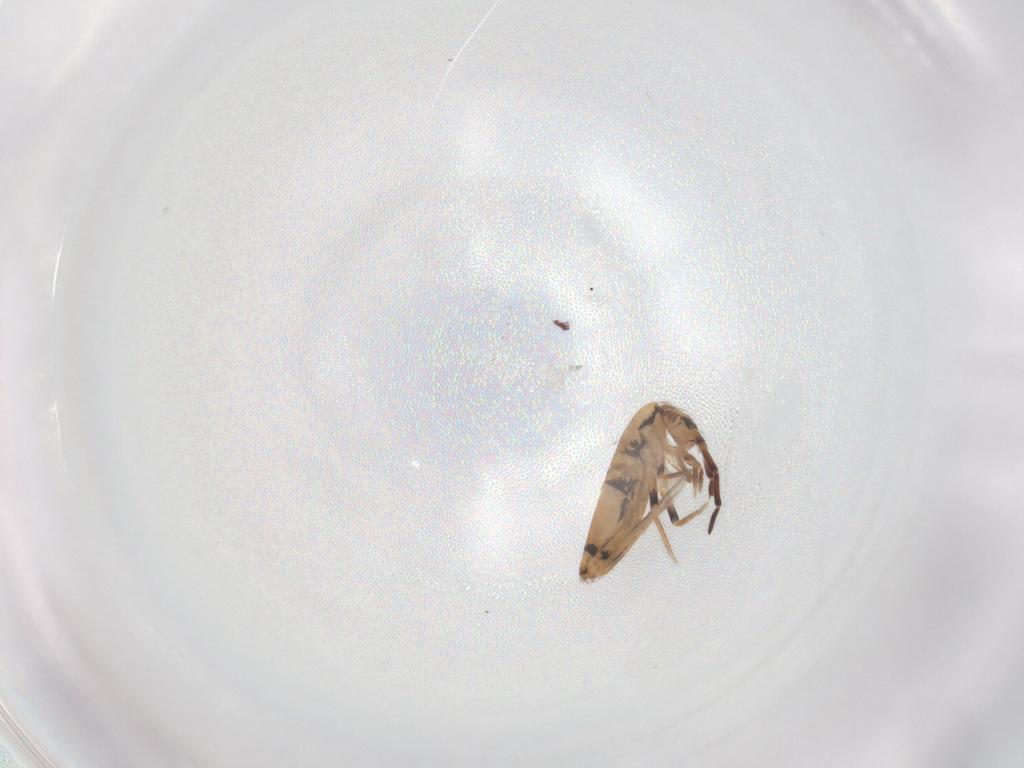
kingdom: Animalia
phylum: Arthropoda
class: Collembola
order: Entomobryomorpha
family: Entomobryidae
